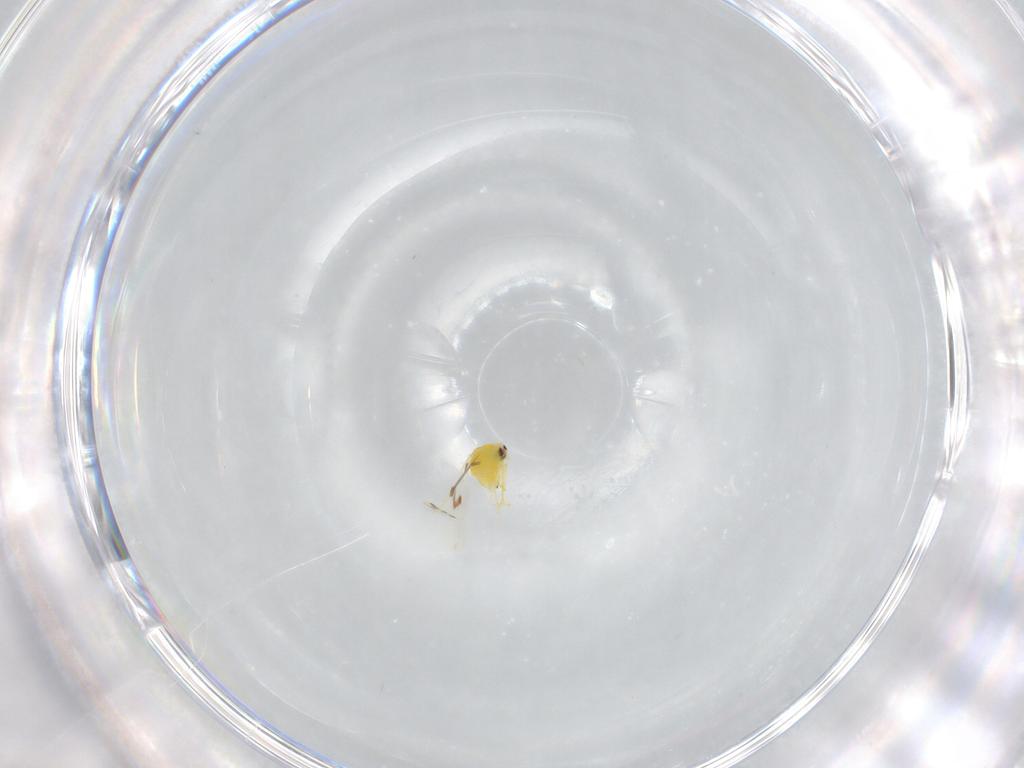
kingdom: Animalia
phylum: Arthropoda
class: Insecta
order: Hemiptera
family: Aleyrodidae
